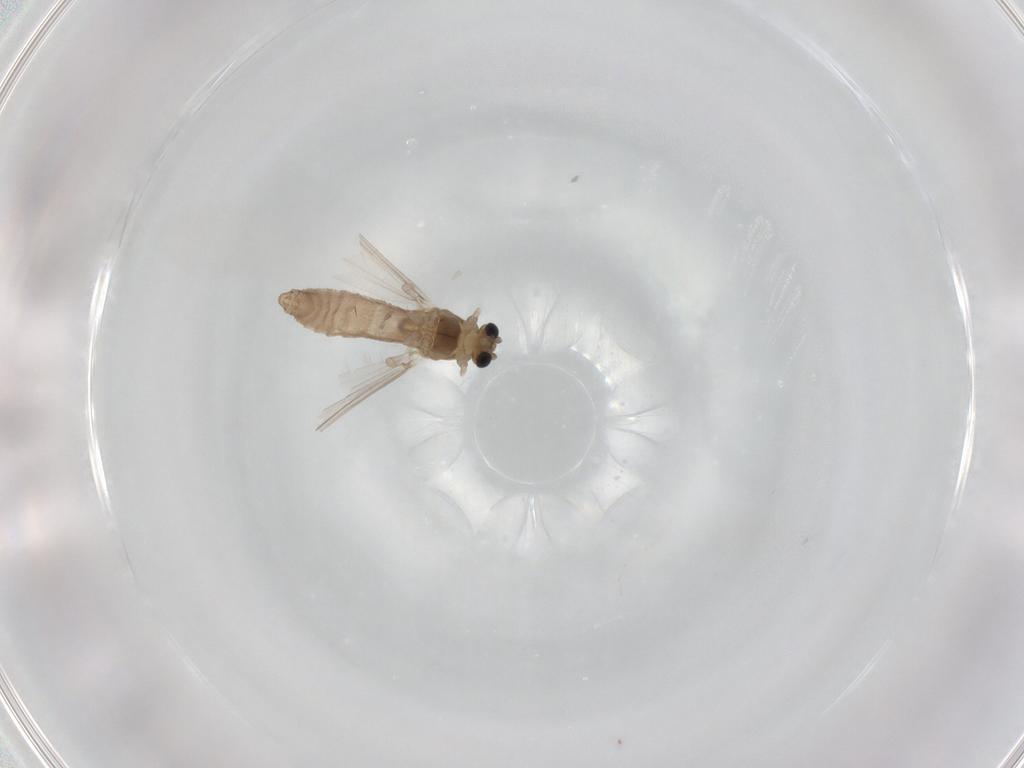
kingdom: Animalia
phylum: Arthropoda
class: Insecta
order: Diptera
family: Chironomidae
